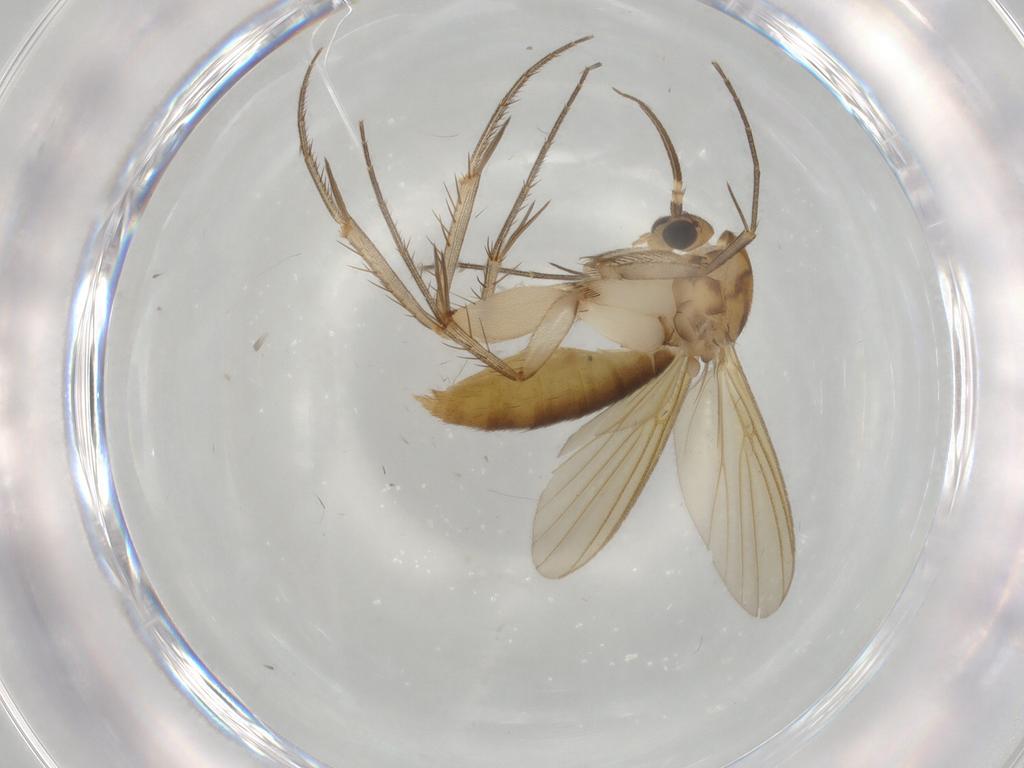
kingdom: Animalia
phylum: Arthropoda
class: Insecta
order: Diptera
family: Mycetophilidae
